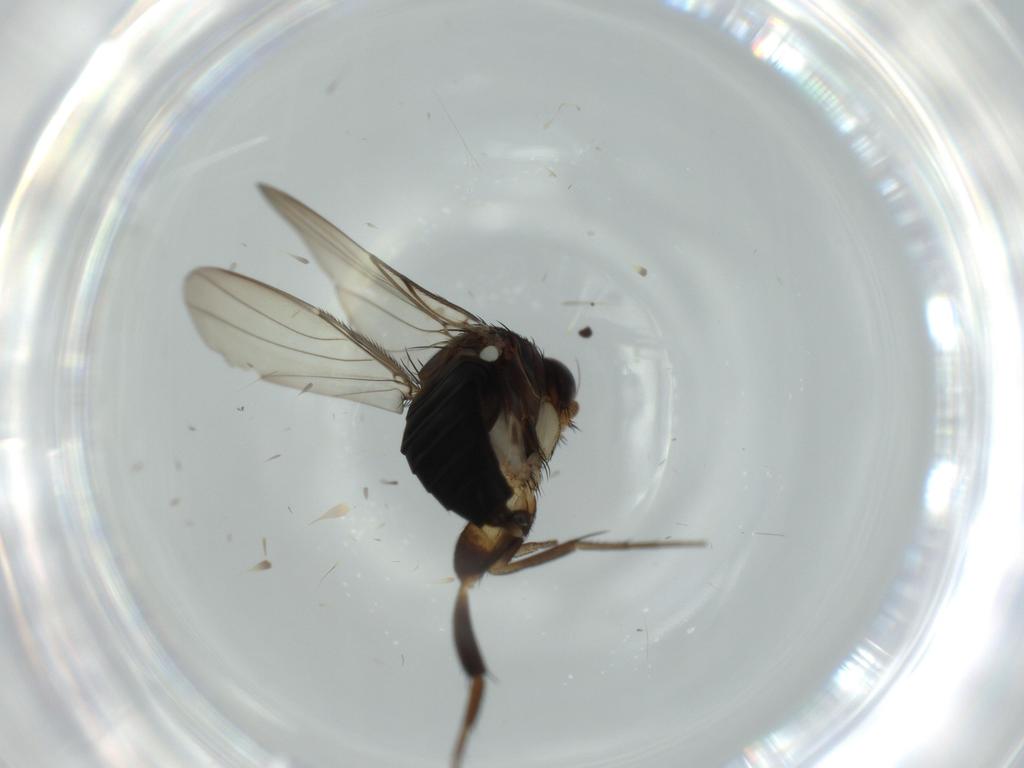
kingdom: Animalia
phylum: Arthropoda
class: Insecta
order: Diptera
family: Chironomidae
